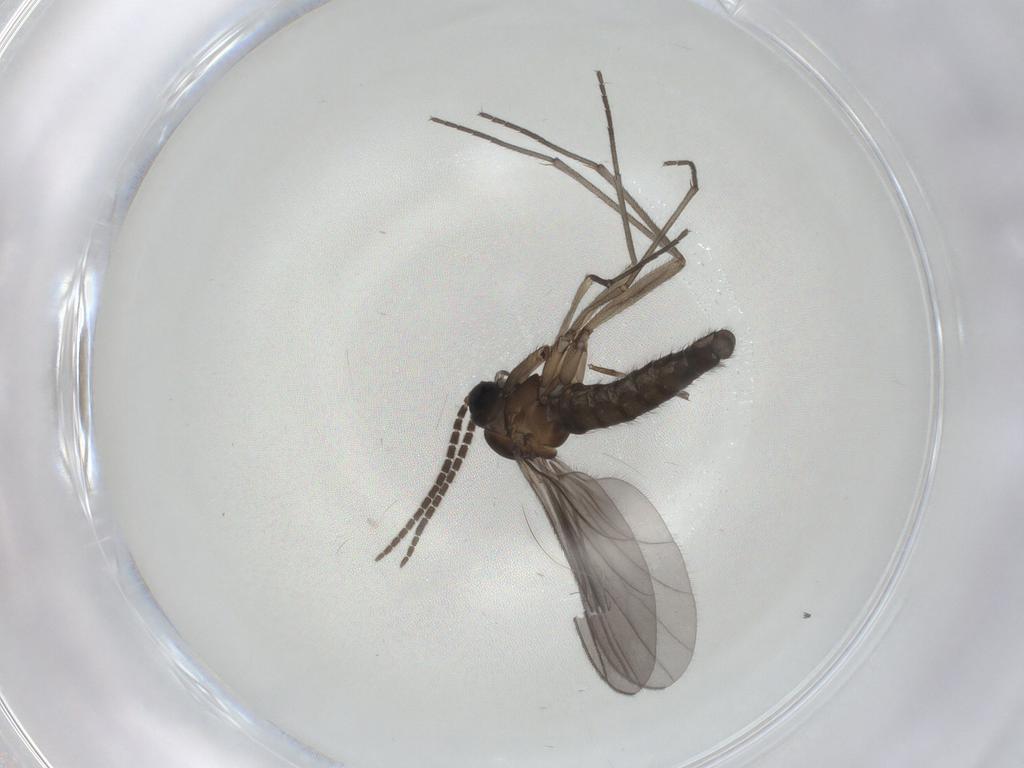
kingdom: Animalia
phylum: Arthropoda
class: Insecta
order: Diptera
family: Sciaridae
